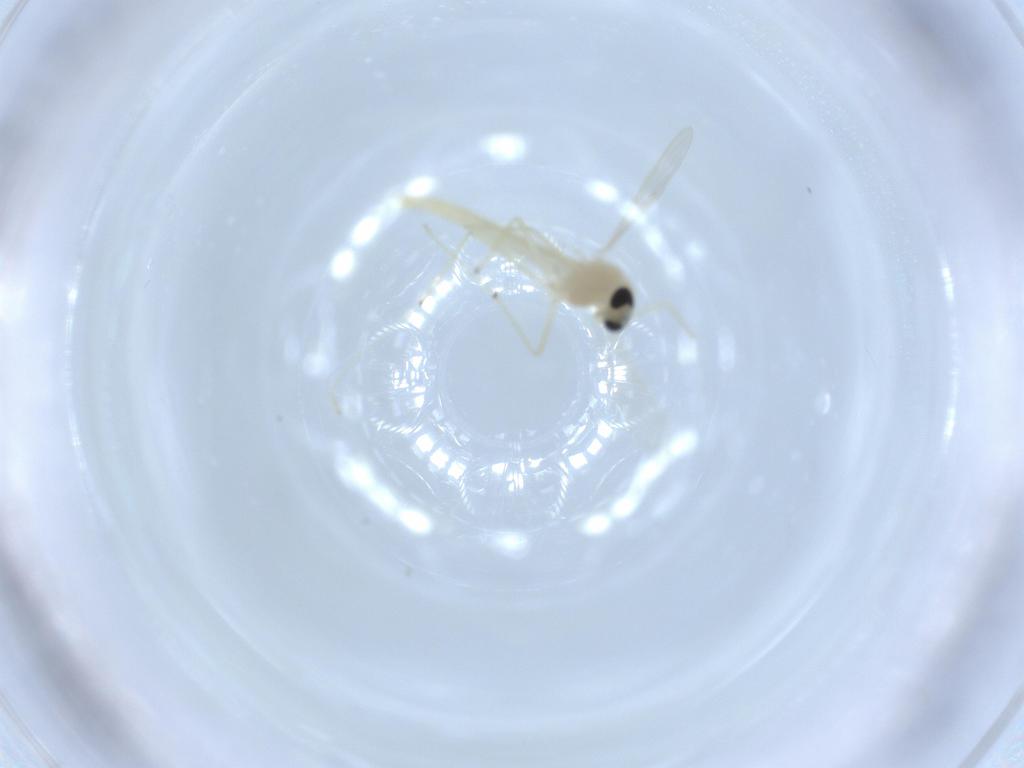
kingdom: Animalia
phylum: Arthropoda
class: Insecta
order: Diptera
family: Chironomidae
